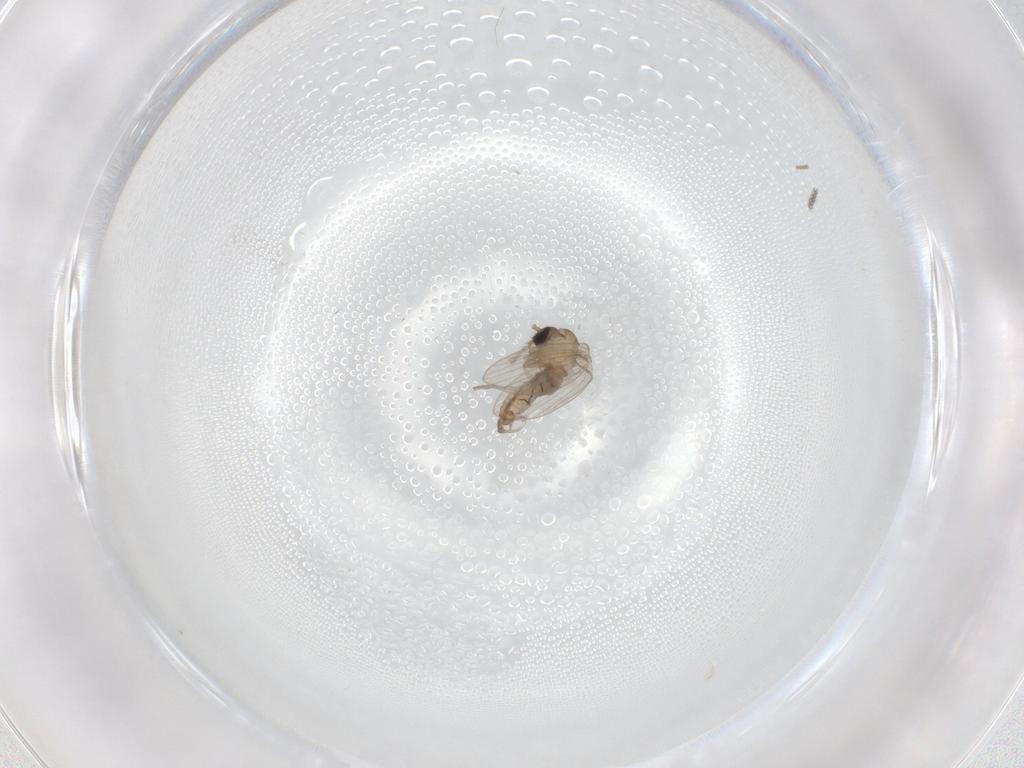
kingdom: Animalia
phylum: Arthropoda
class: Insecta
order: Diptera
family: Psychodidae
